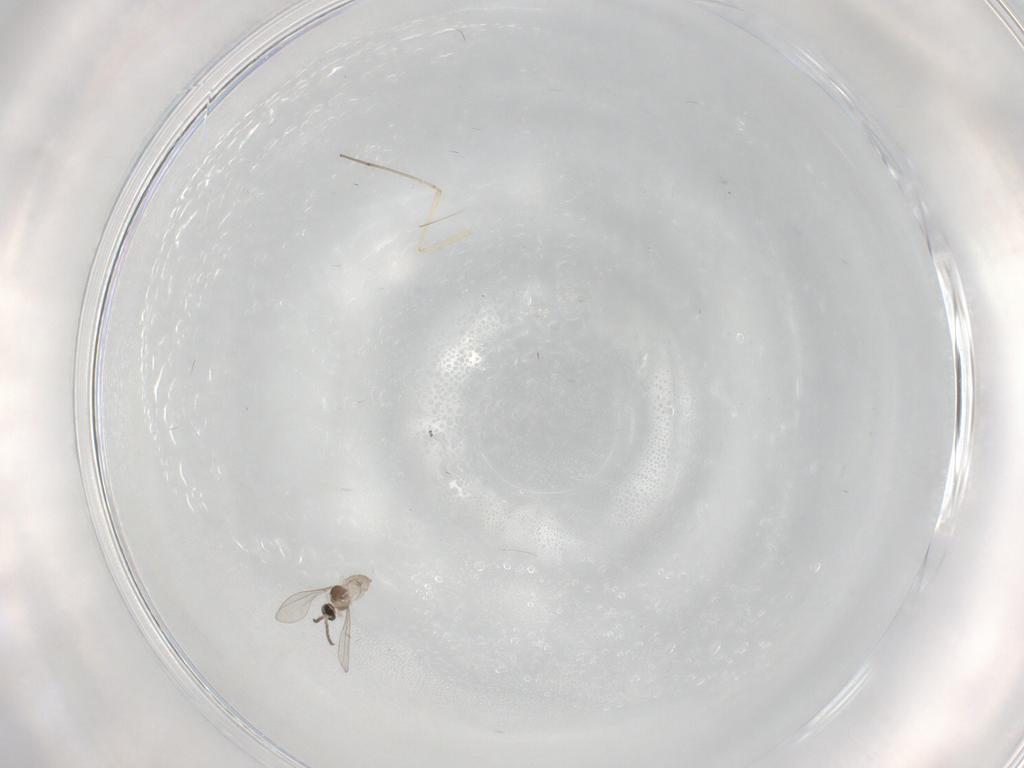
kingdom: Animalia
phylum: Arthropoda
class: Insecta
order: Diptera
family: Cecidomyiidae
